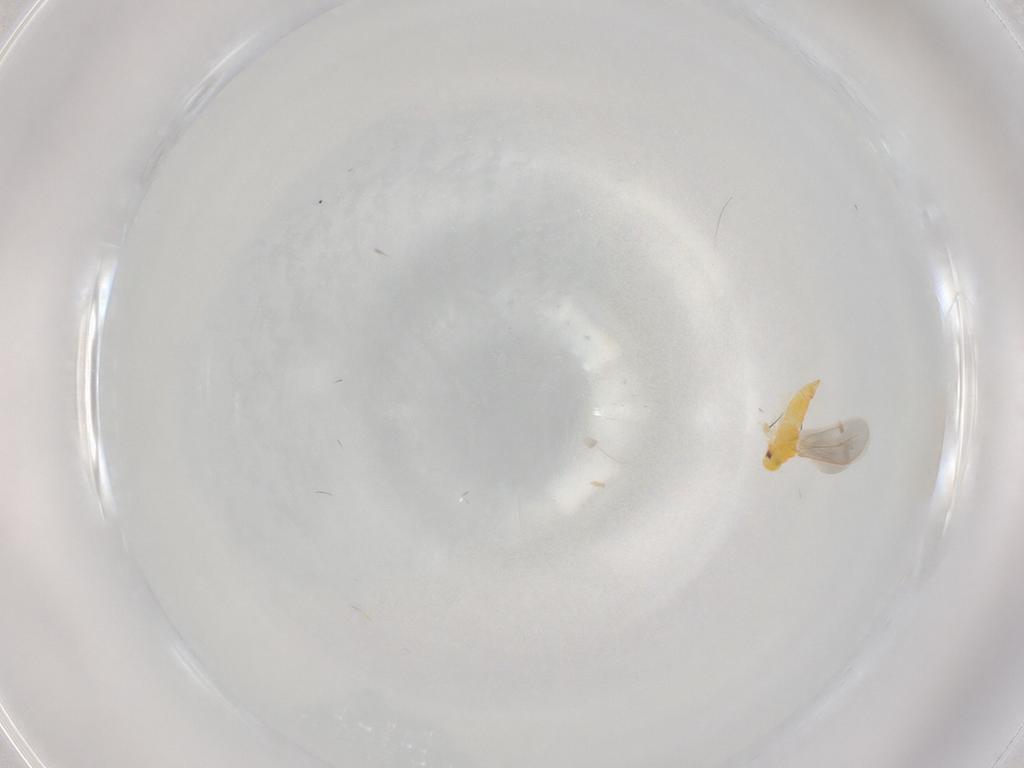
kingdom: Animalia
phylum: Arthropoda
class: Insecta
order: Hemiptera
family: Aleyrodidae
